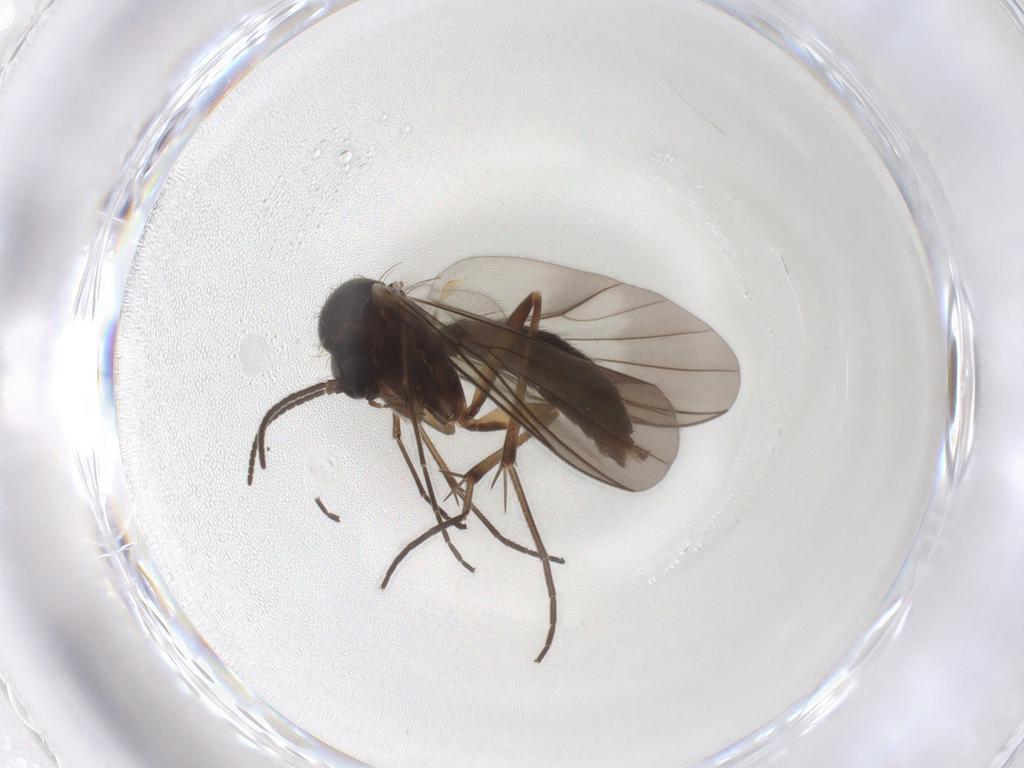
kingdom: Animalia
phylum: Arthropoda
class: Insecta
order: Diptera
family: Mycetophilidae
